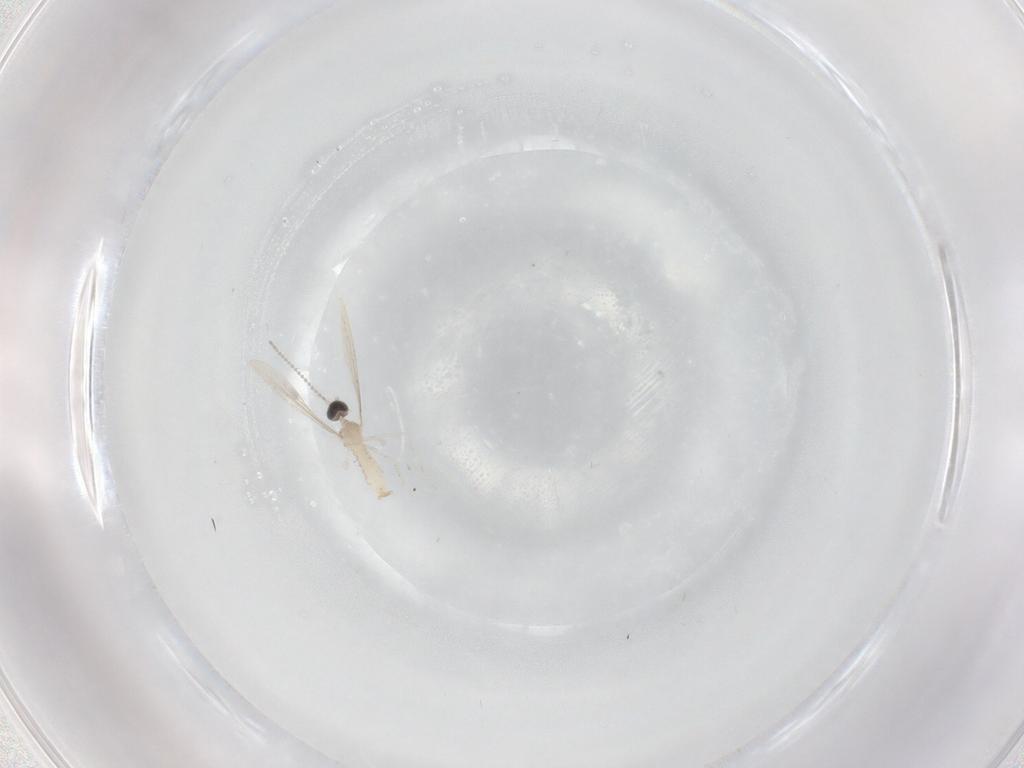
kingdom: Animalia
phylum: Arthropoda
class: Insecta
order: Diptera
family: Cecidomyiidae
